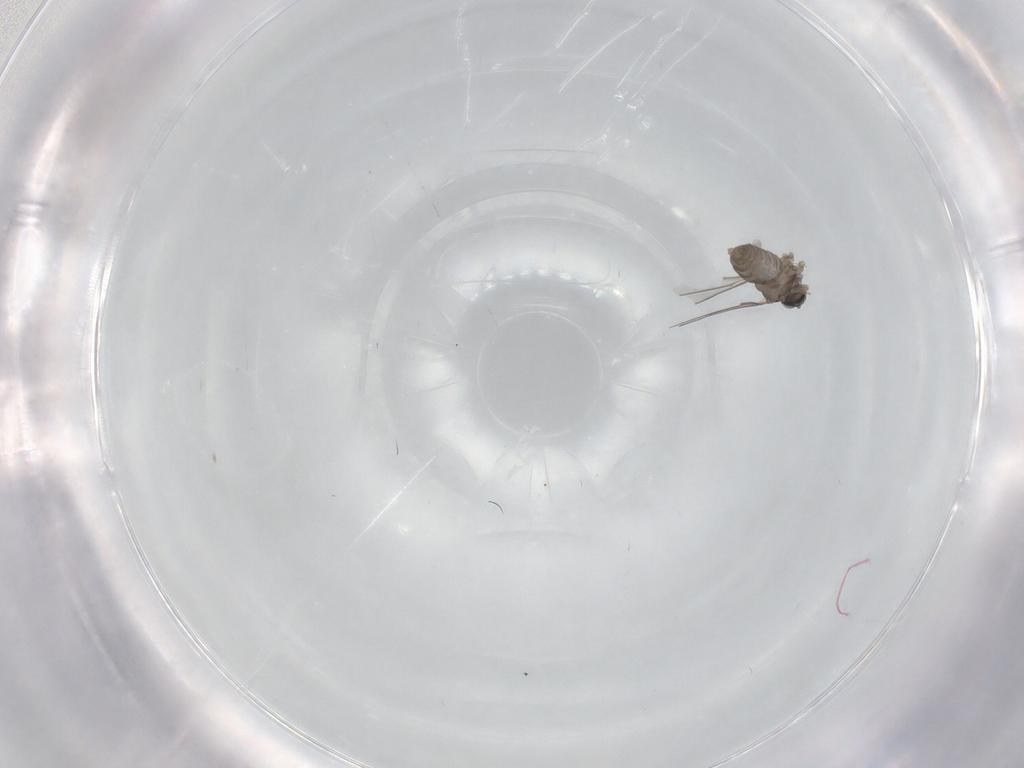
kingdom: Animalia
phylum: Arthropoda
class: Insecta
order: Diptera
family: Cecidomyiidae
